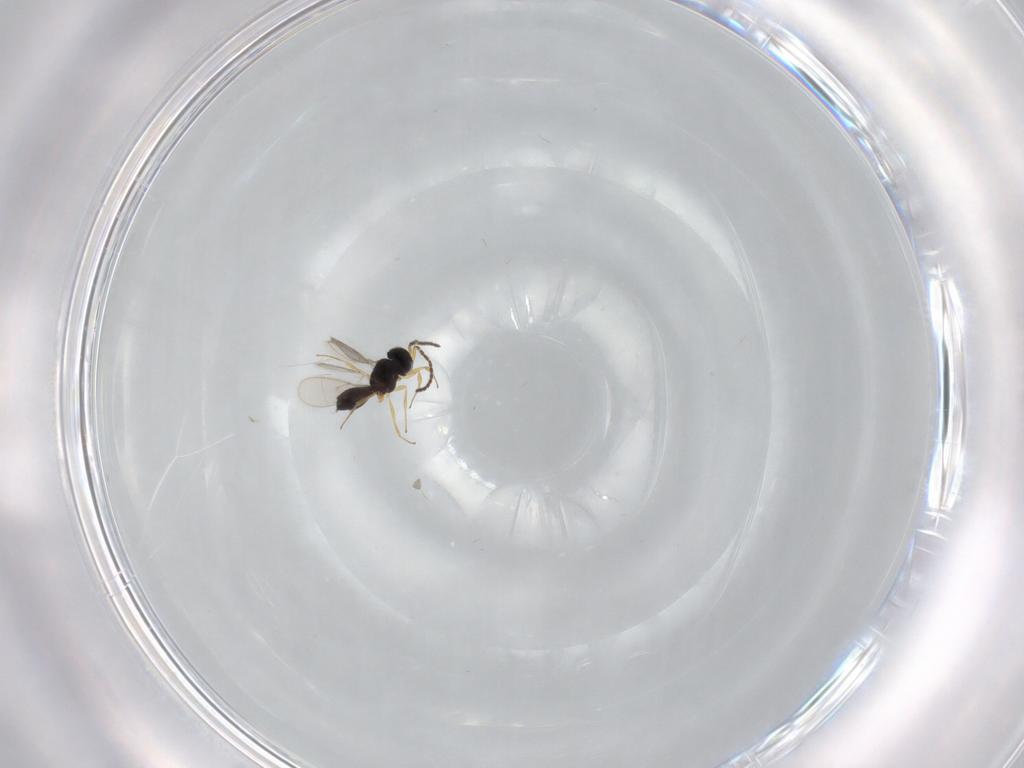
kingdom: Animalia
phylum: Arthropoda
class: Insecta
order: Hymenoptera
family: Scelionidae
